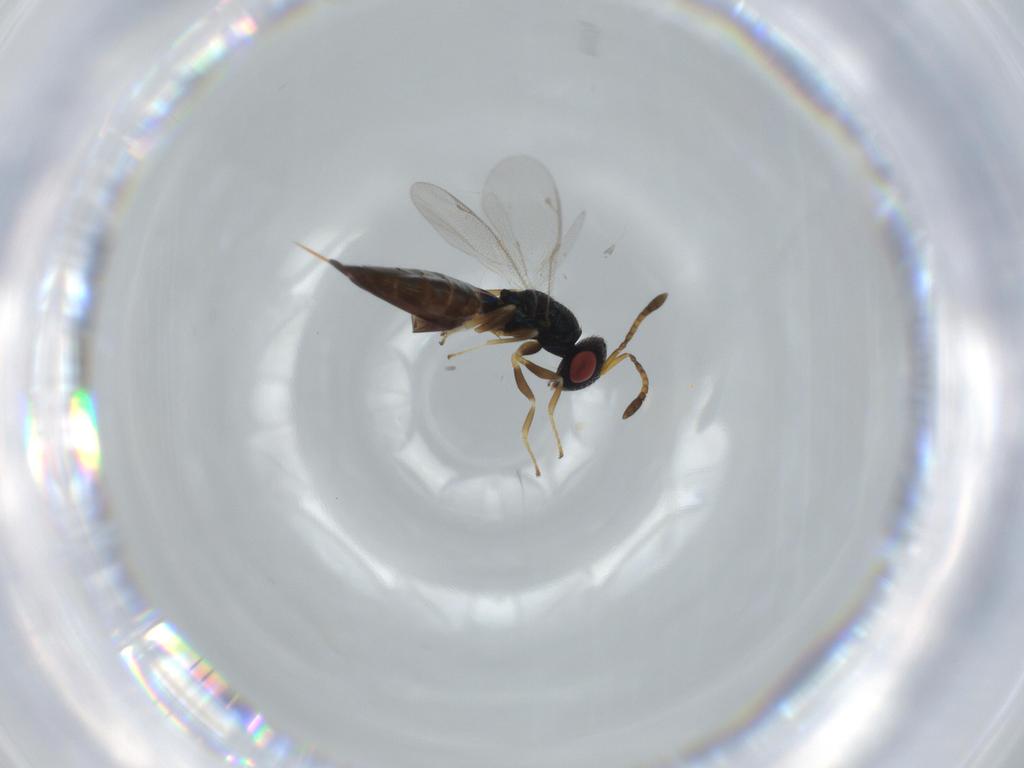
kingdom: Animalia
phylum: Arthropoda
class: Insecta
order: Hymenoptera
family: Pteromalidae
